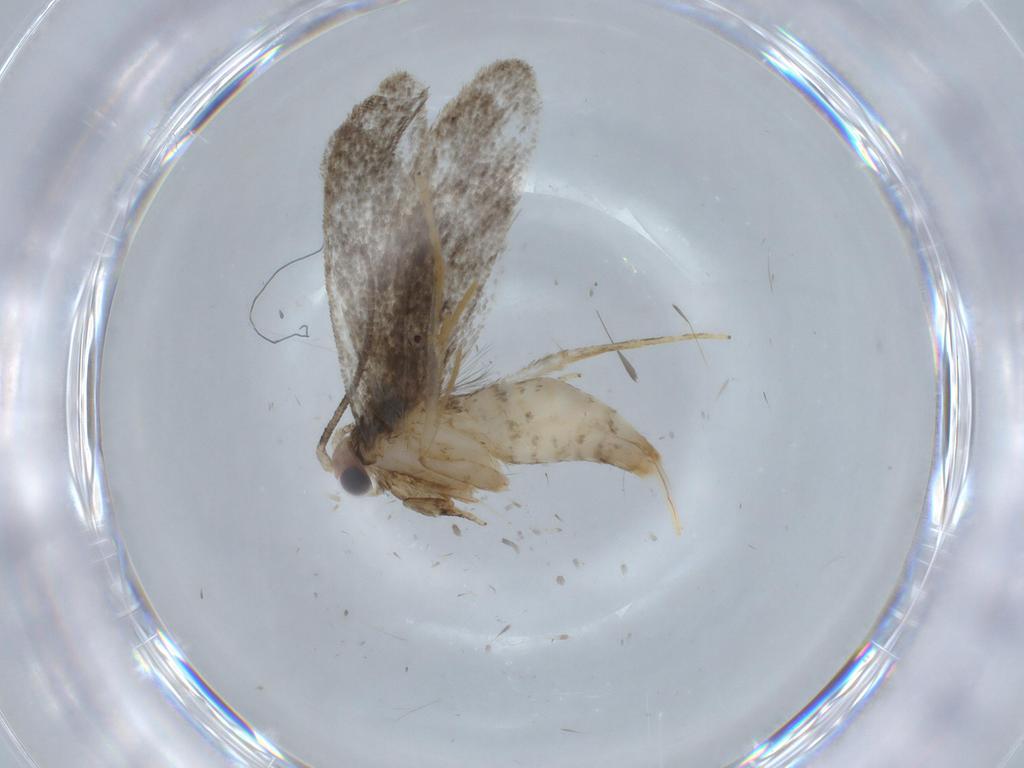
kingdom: Animalia
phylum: Arthropoda
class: Insecta
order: Lepidoptera
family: Tineidae
